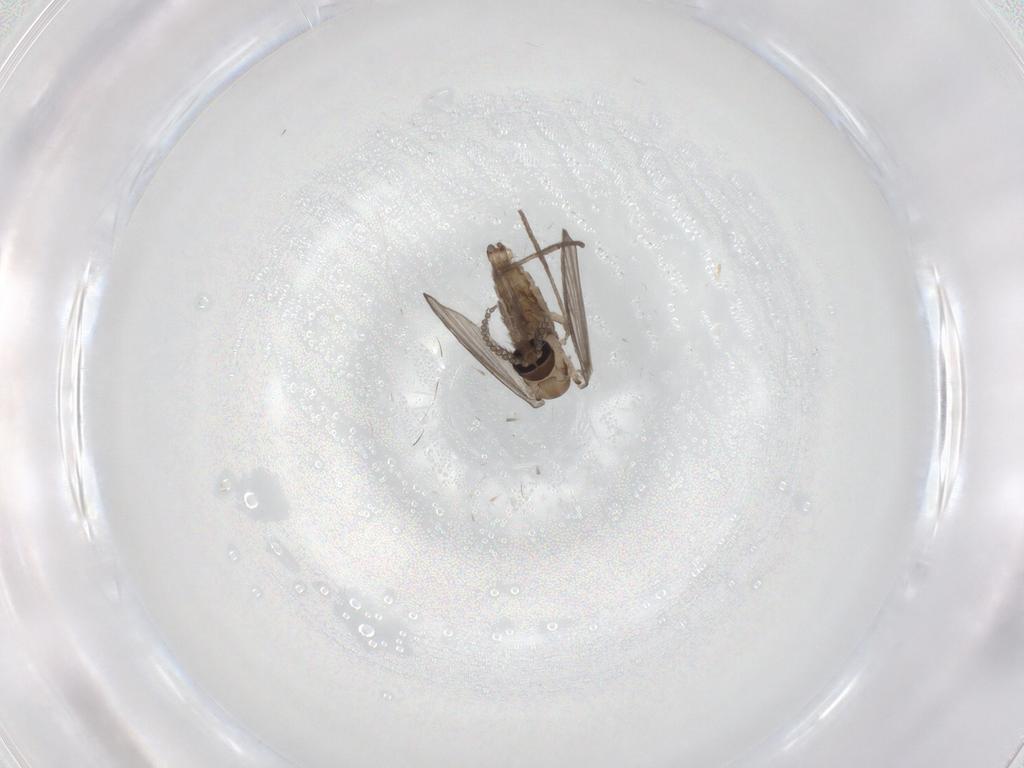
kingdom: Animalia
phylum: Arthropoda
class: Insecta
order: Diptera
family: Psychodidae
